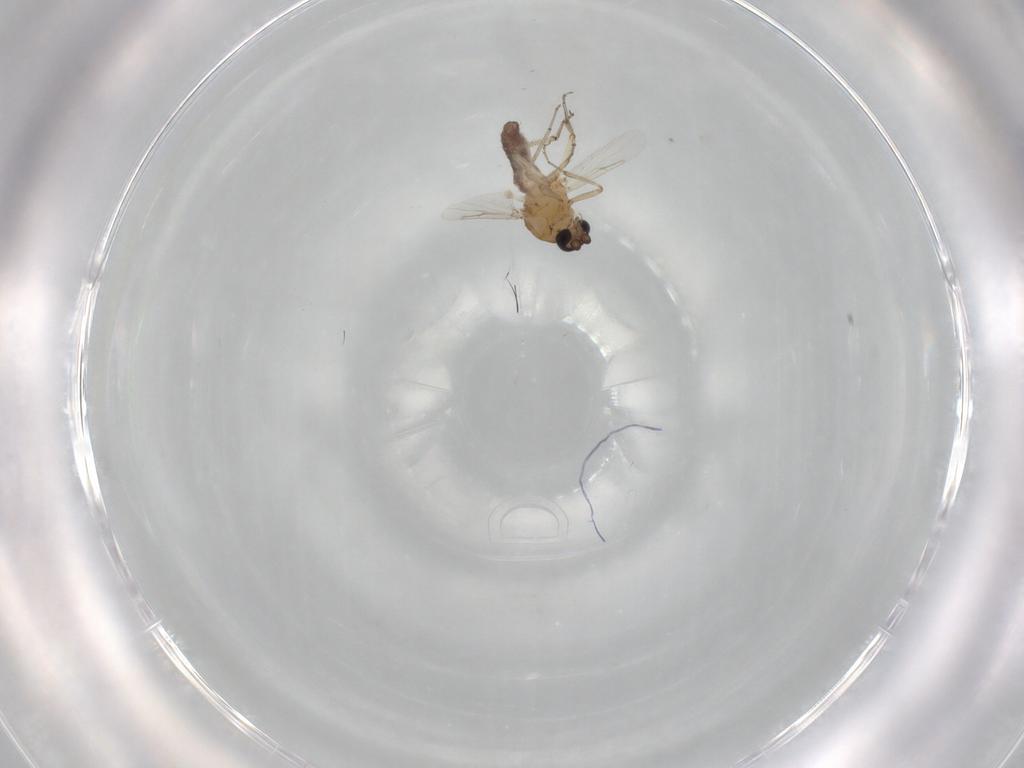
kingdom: Animalia
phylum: Arthropoda
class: Insecta
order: Diptera
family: Ceratopogonidae
